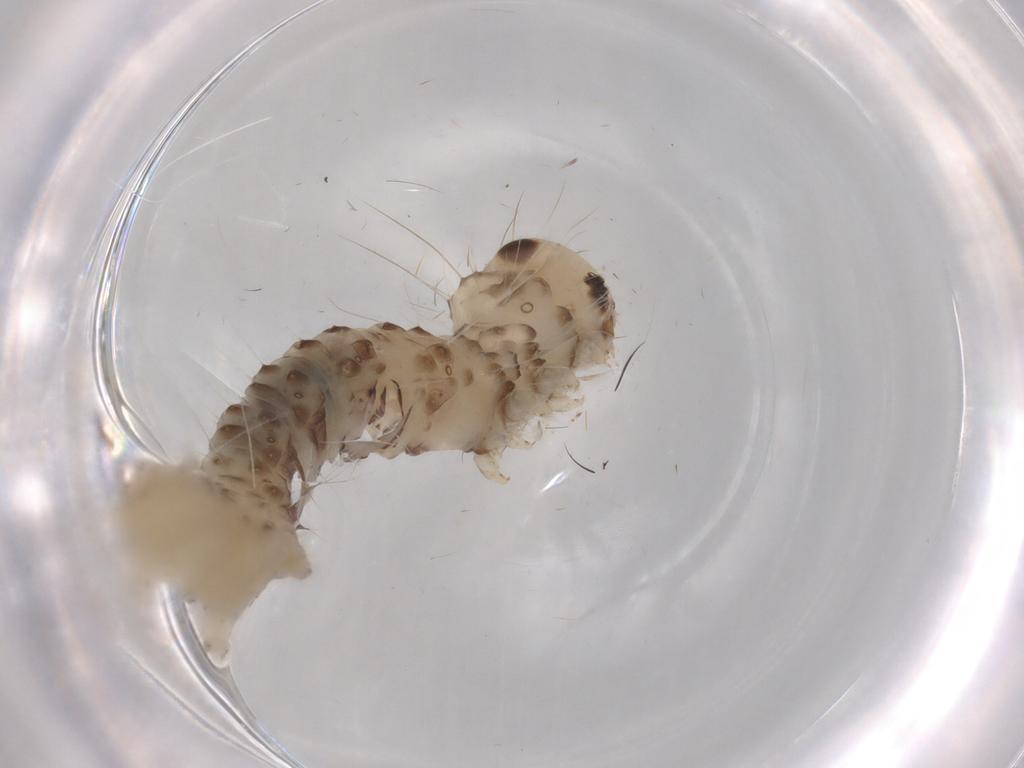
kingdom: Animalia
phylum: Arthropoda
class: Insecta
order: Lepidoptera
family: Geometridae
